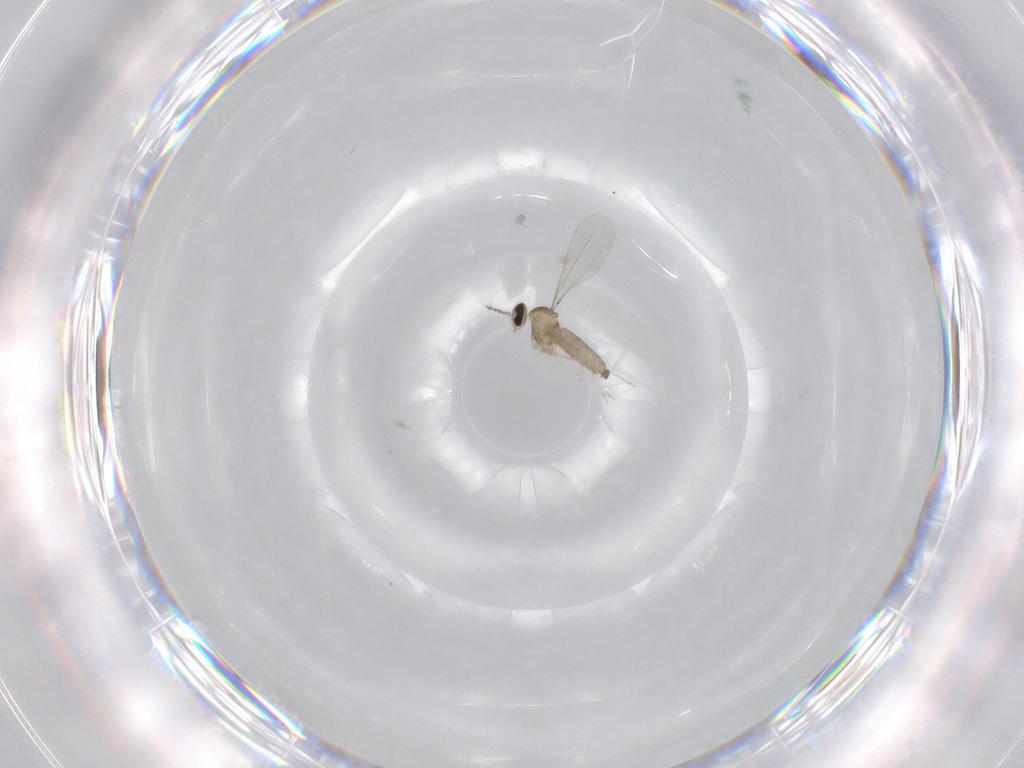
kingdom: Animalia
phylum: Arthropoda
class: Insecta
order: Diptera
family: Cecidomyiidae
